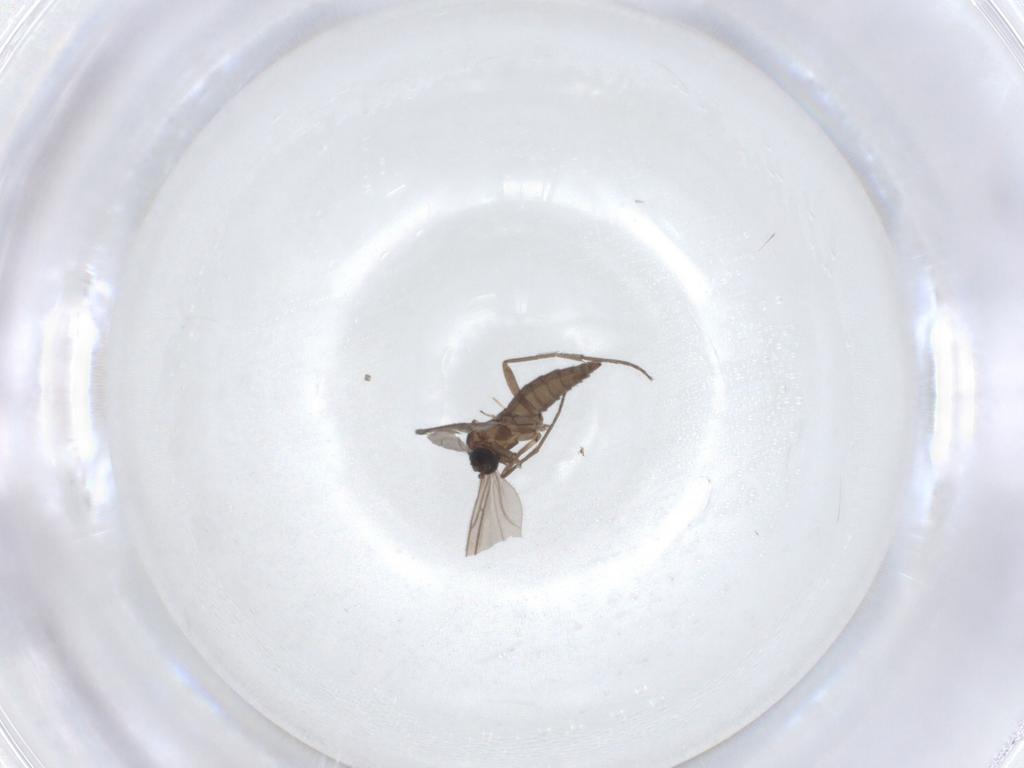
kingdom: Animalia
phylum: Arthropoda
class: Insecta
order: Diptera
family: Sciaridae
